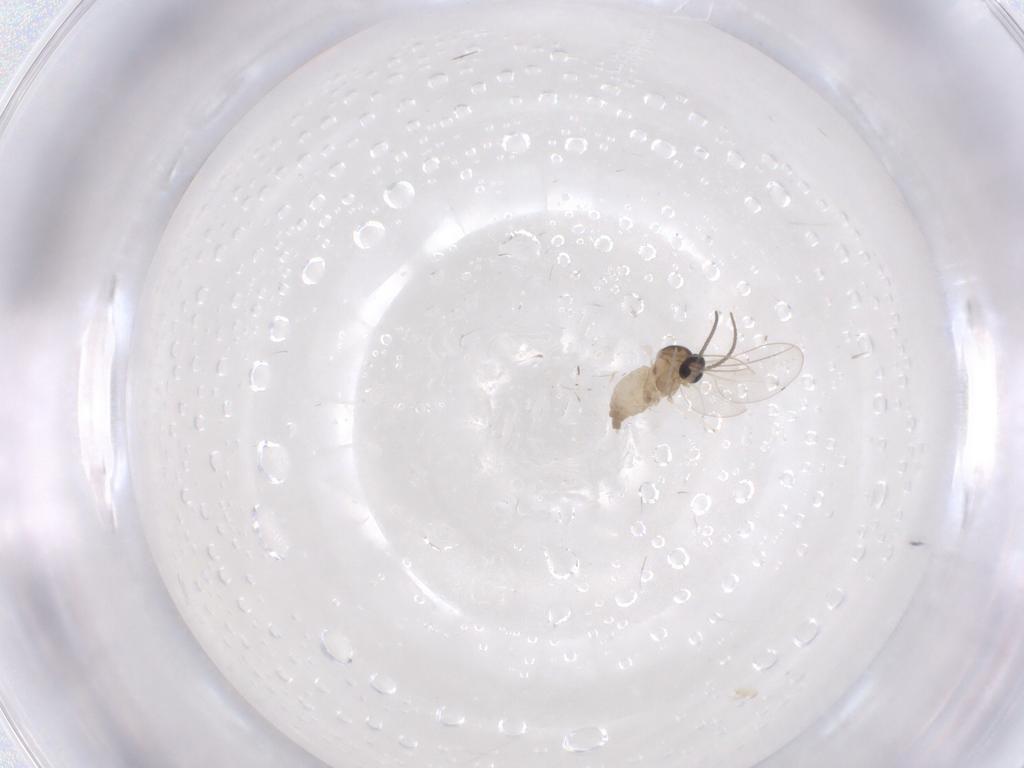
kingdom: Animalia
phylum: Arthropoda
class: Insecta
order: Diptera
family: Cecidomyiidae
